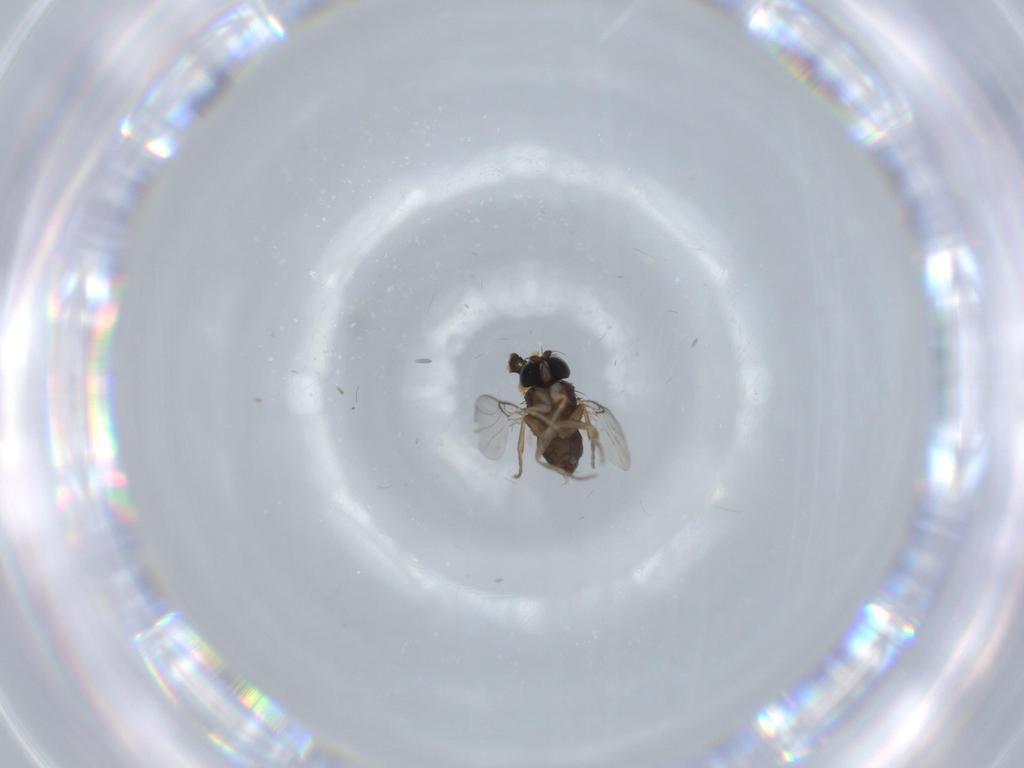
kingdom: Animalia
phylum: Arthropoda
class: Insecta
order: Diptera
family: Phoridae
